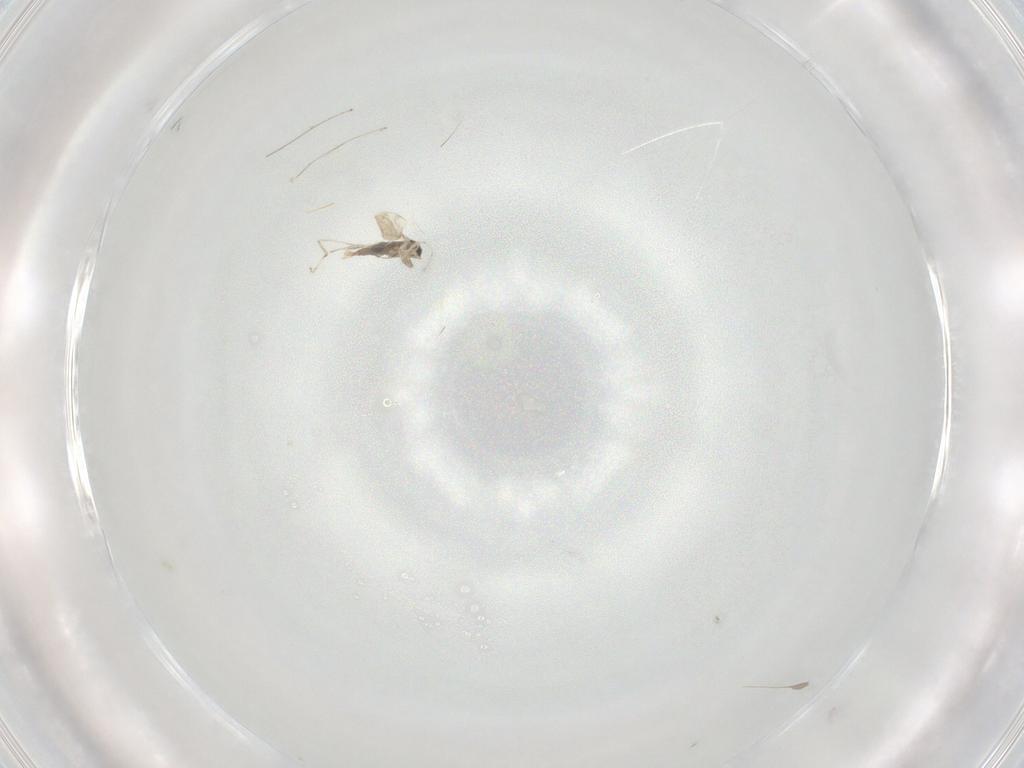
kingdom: Animalia
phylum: Arthropoda
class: Insecta
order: Diptera
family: Cecidomyiidae
